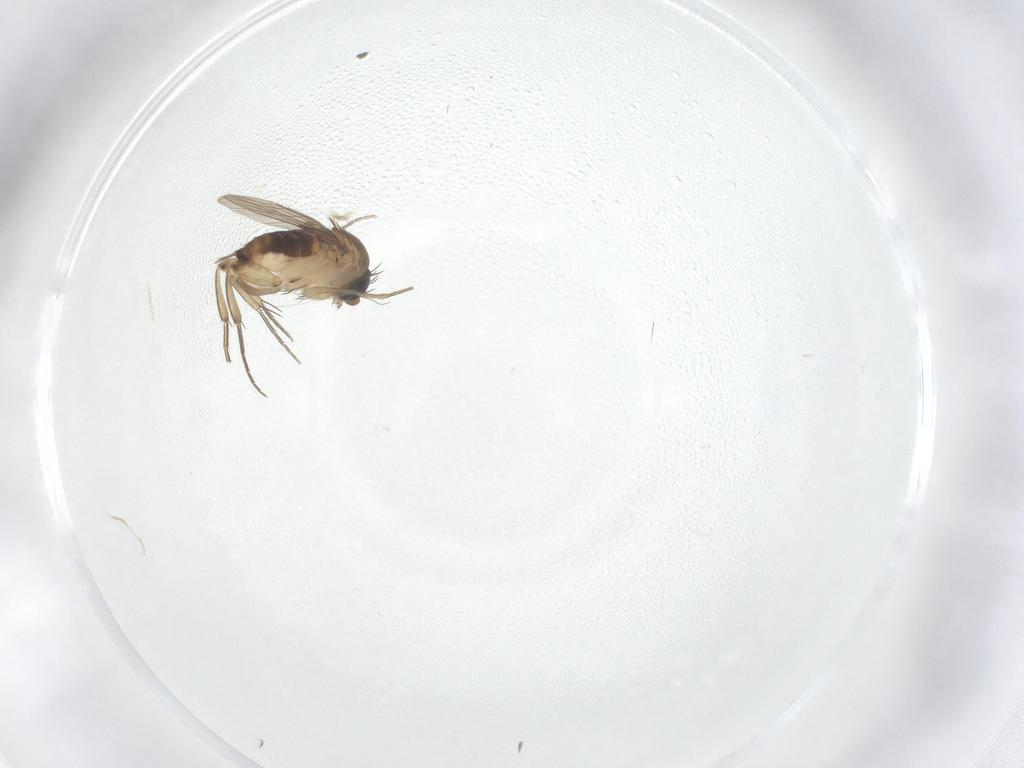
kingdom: Animalia
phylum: Arthropoda
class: Insecta
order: Diptera
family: Phoridae
